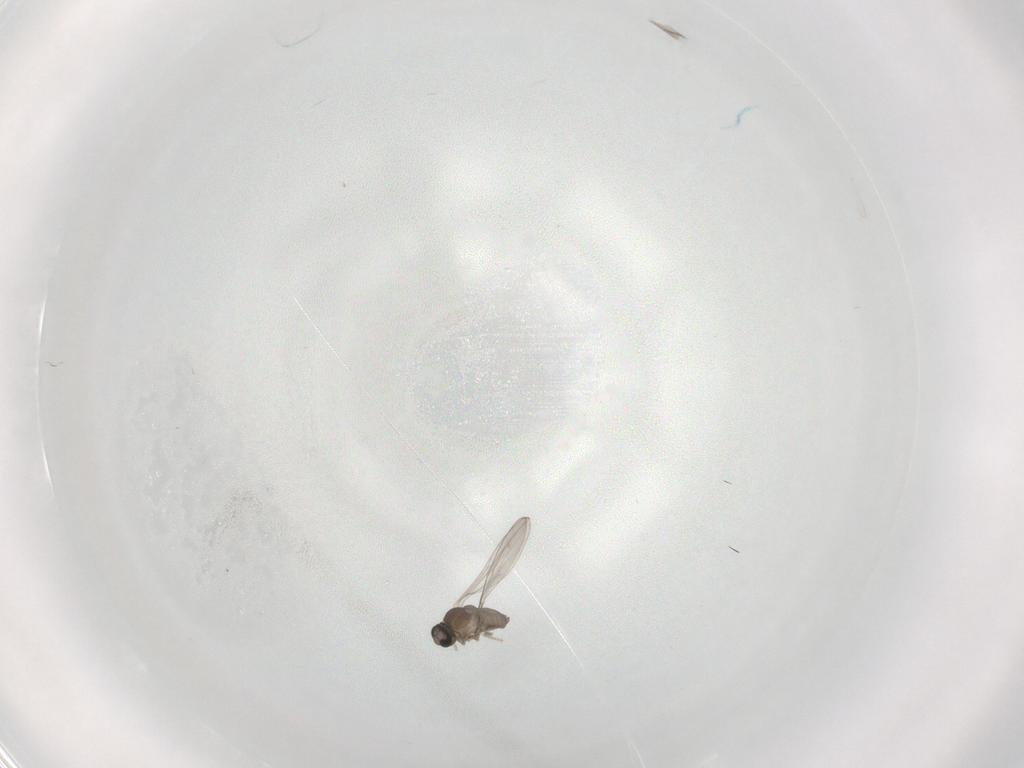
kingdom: Animalia
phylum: Arthropoda
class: Insecta
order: Diptera
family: Cecidomyiidae
